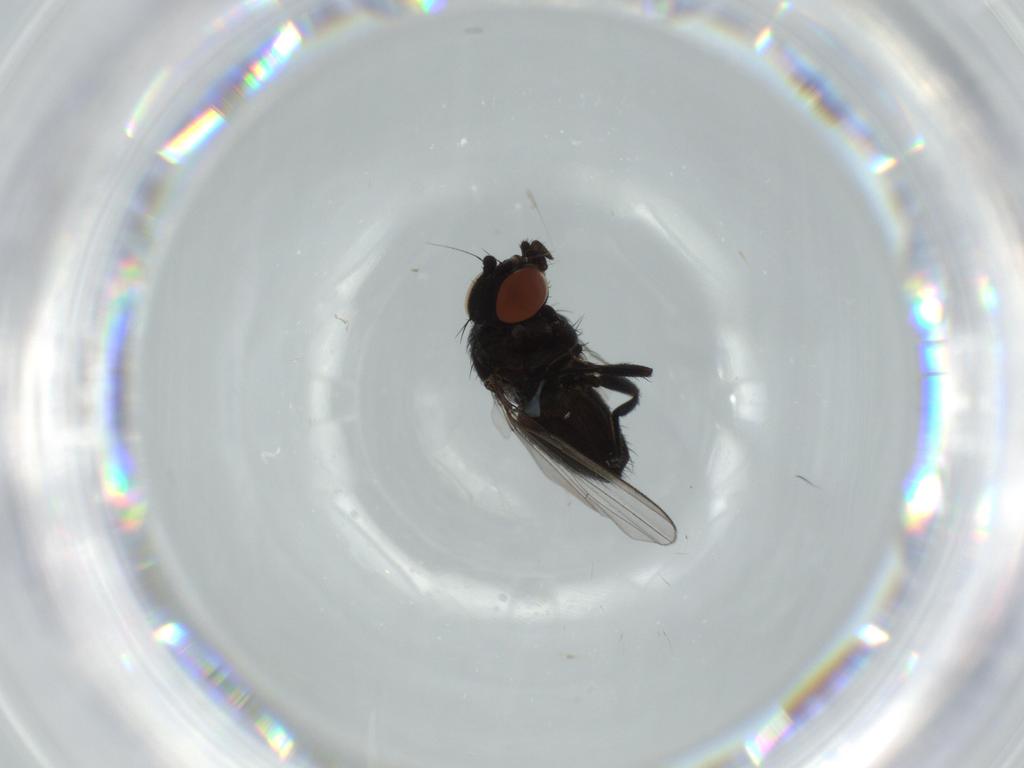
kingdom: Animalia
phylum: Arthropoda
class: Insecta
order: Diptera
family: Milichiidae
